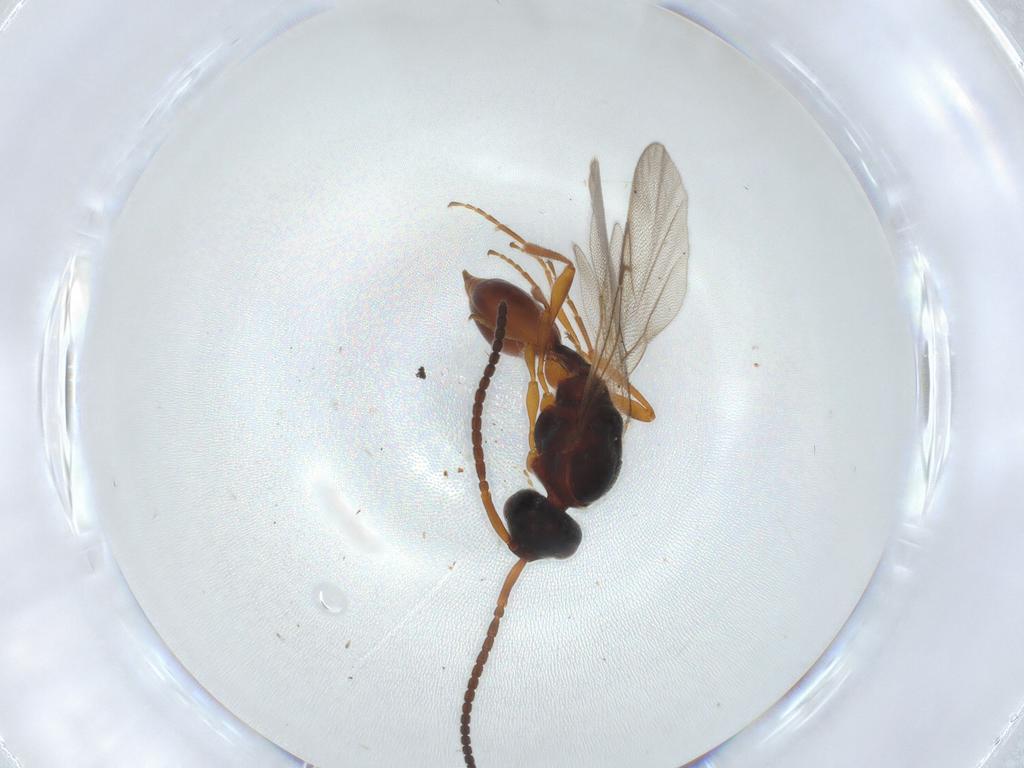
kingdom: Animalia
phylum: Arthropoda
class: Insecta
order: Hymenoptera
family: Diapriidae
